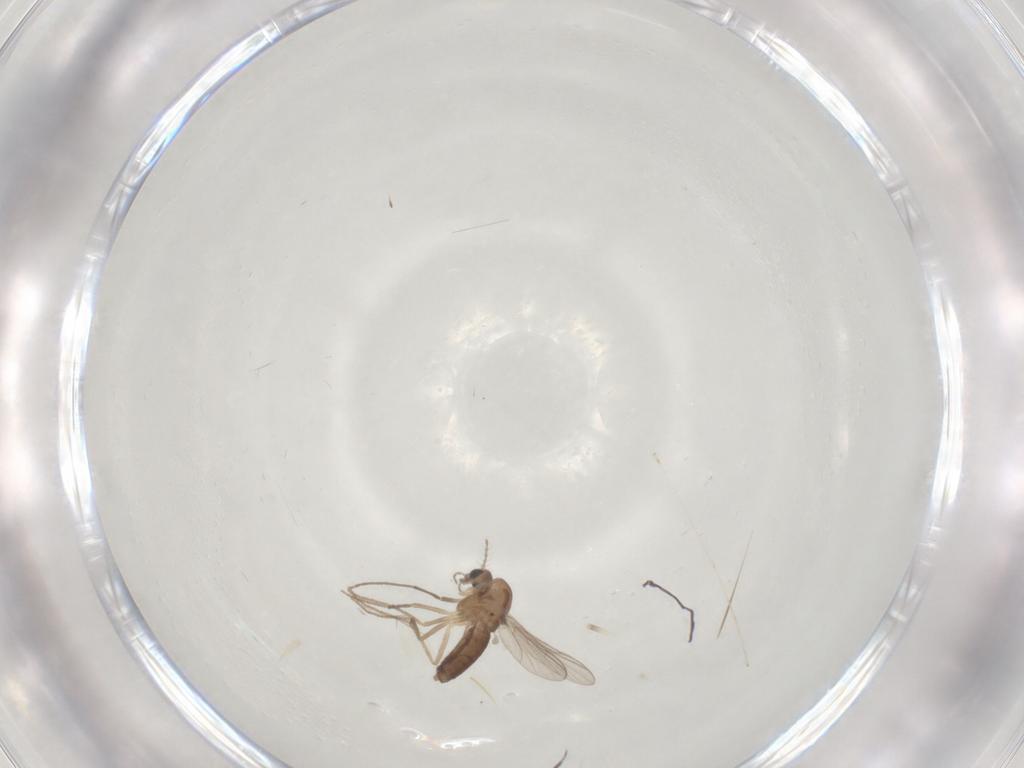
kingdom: Animalia
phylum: Arthropoda
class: Insecta
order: Diptera
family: Chironomidae
